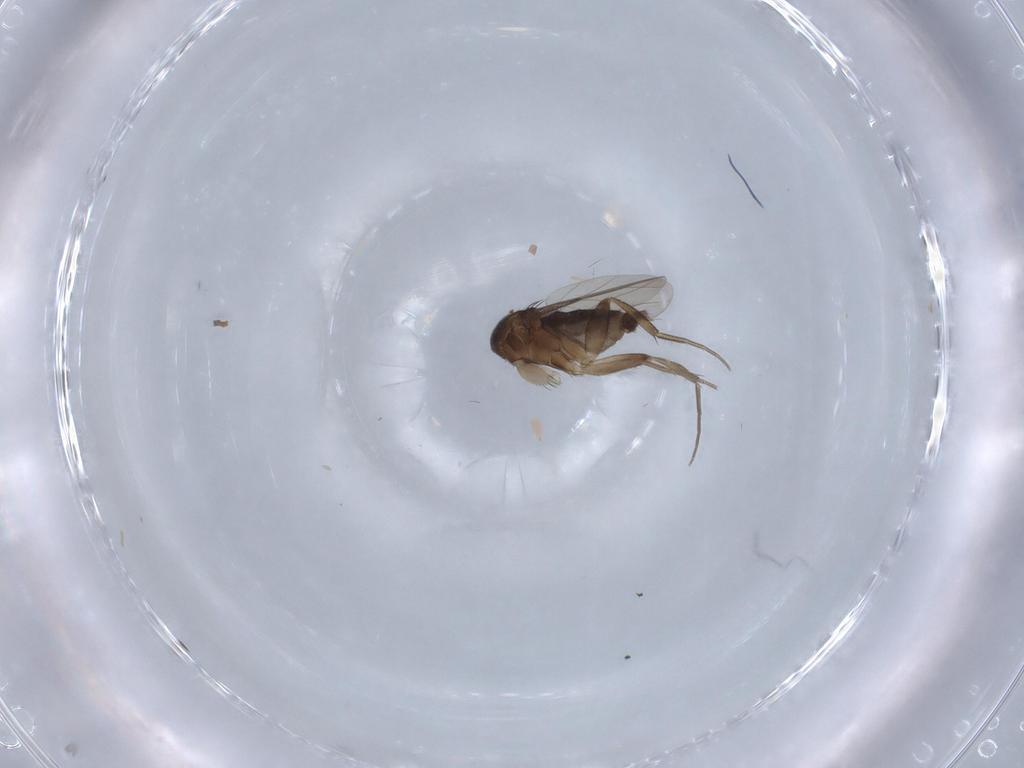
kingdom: Animalia
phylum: Arthropoda
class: Insecta
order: Diptera
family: Phoridae
